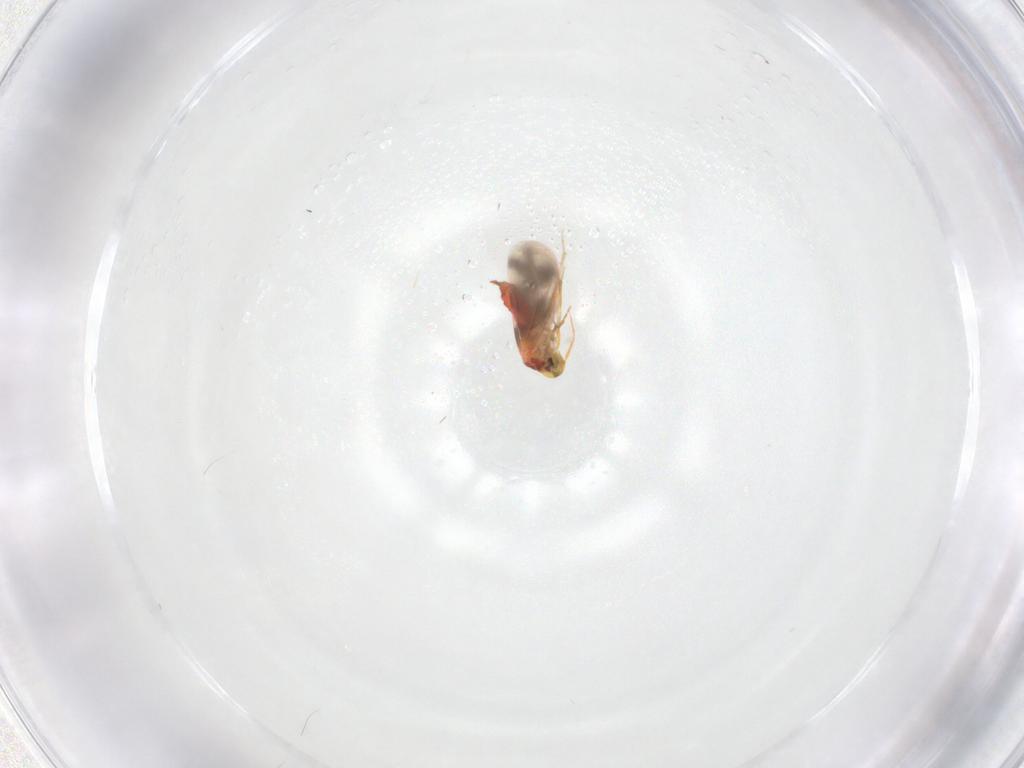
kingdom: Animalia
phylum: Arthropoda
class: Insecta
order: Hemiptera
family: Aleyrodidae
